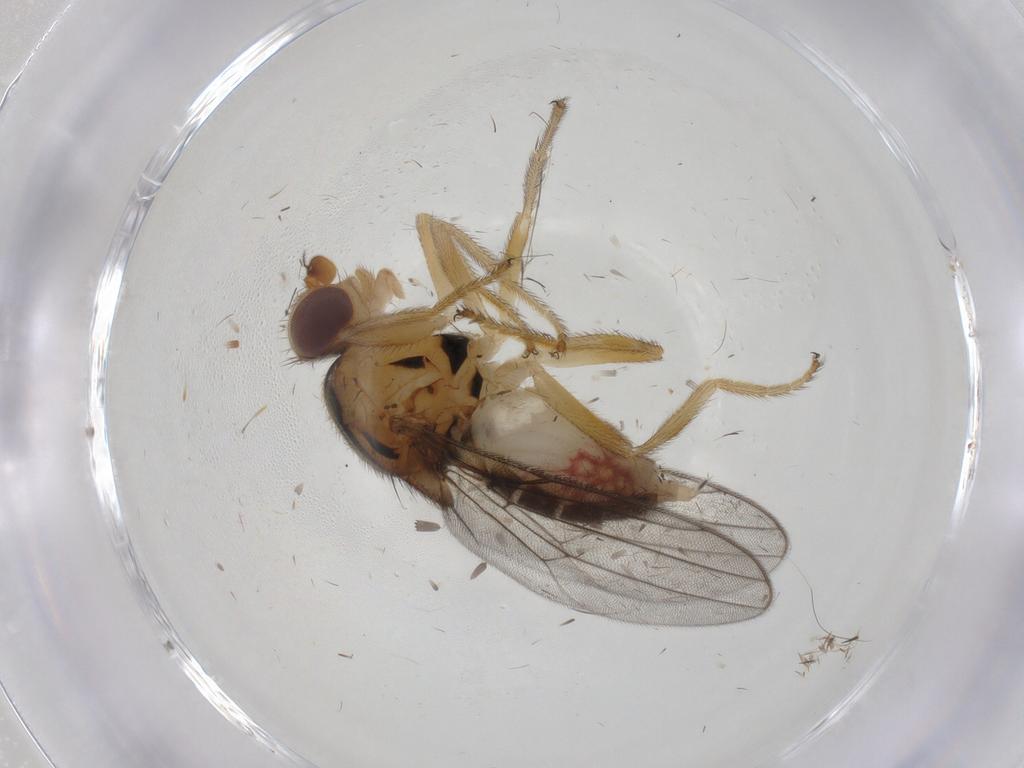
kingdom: Animalia
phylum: Arthropoda
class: Insecta
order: Diptera
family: Chloropidae
